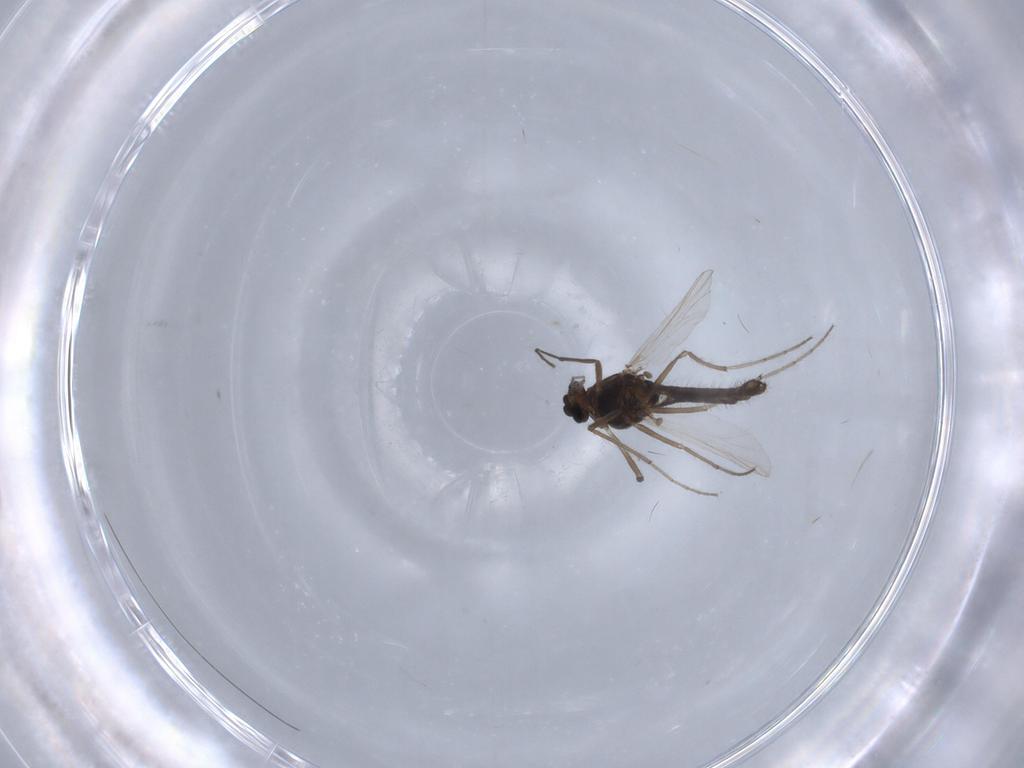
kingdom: Animalia
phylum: Arthropoda
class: Insecta
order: Diptera
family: Chironomidae
